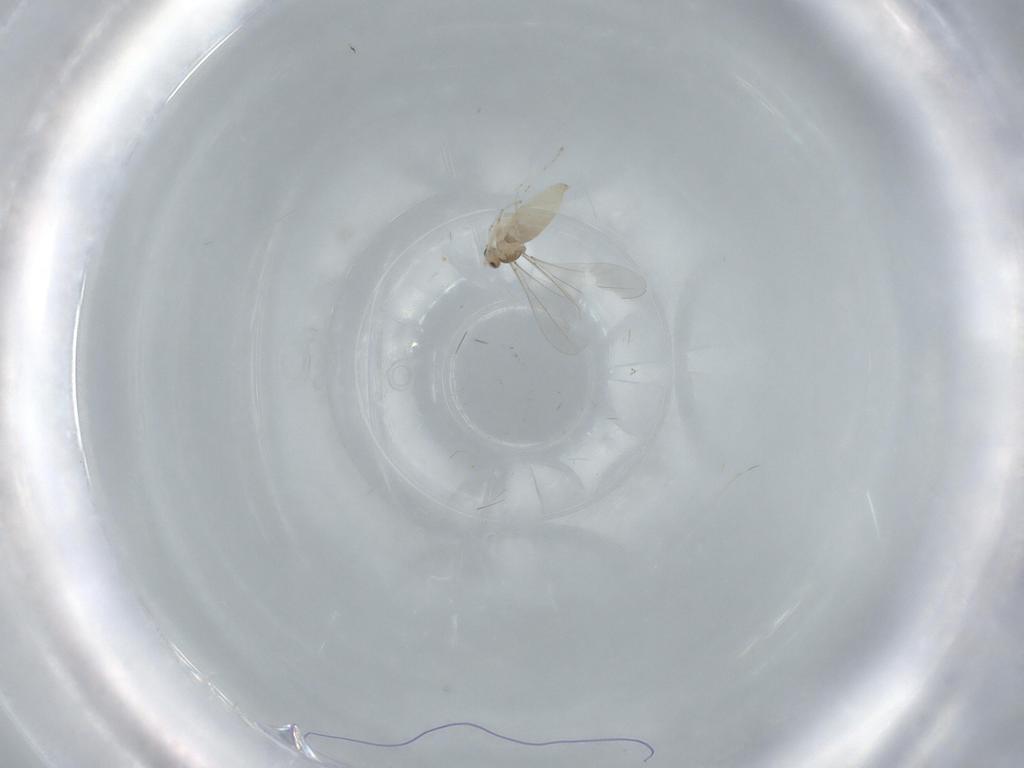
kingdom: Animalia
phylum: Arthropoda
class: Insecta
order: Diptera
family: Cecidomyiidae
